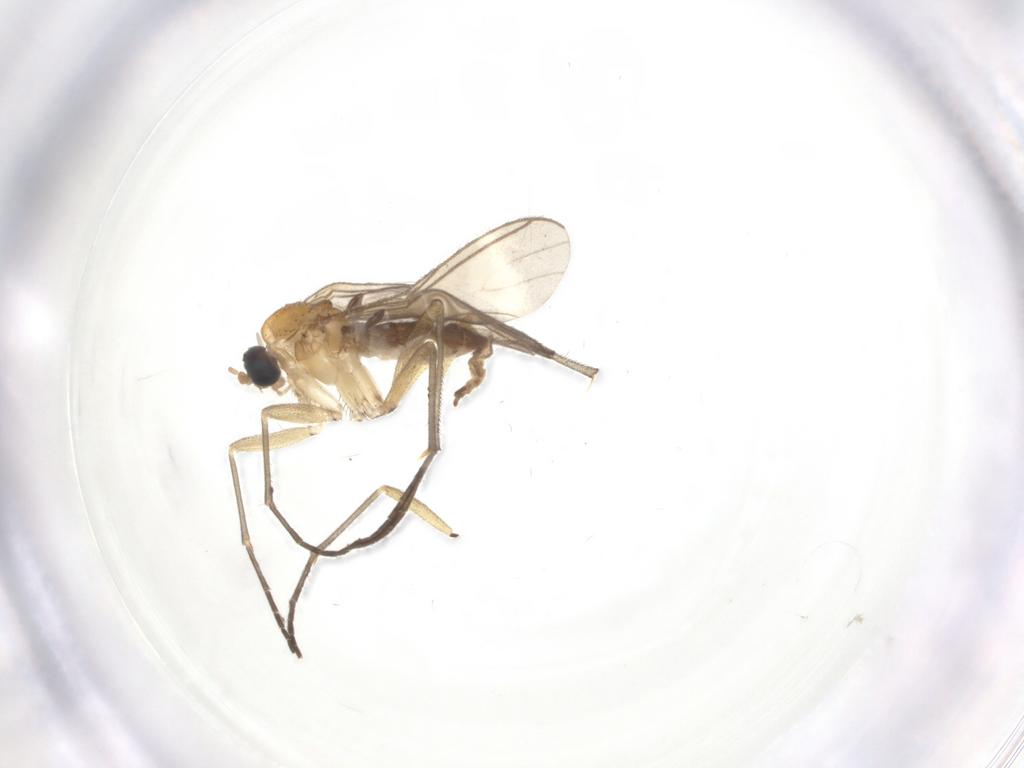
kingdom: Animalia
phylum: Arthropoda
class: Insecta
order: Diptera
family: Sciaridae
